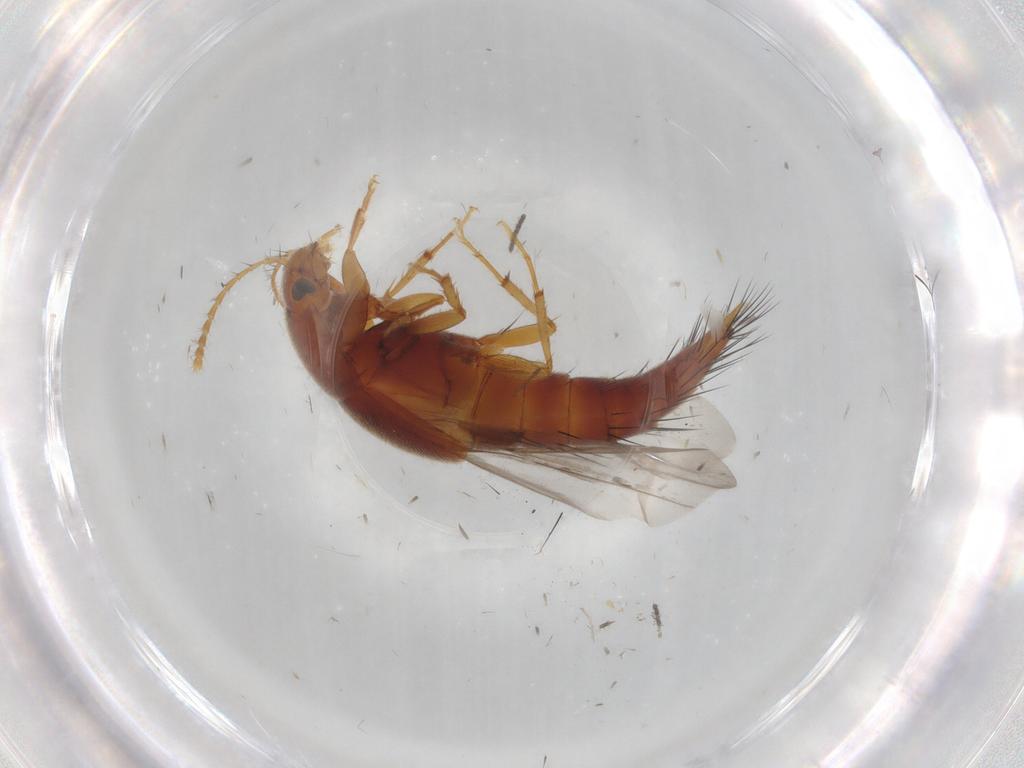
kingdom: Animalia
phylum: Arthropoda
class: Insecta
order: Coleoptera
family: Staphylinidae
